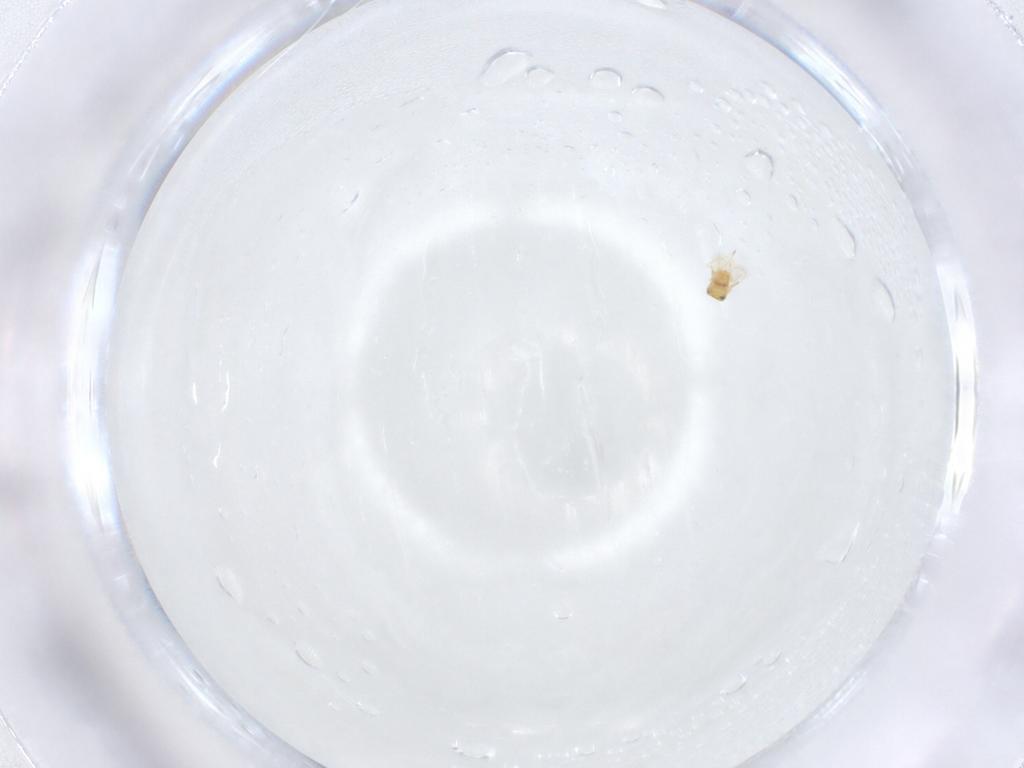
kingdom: Animalia
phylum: Arthropoda
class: Insecta
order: Hymenoptera
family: Aphelinidae
